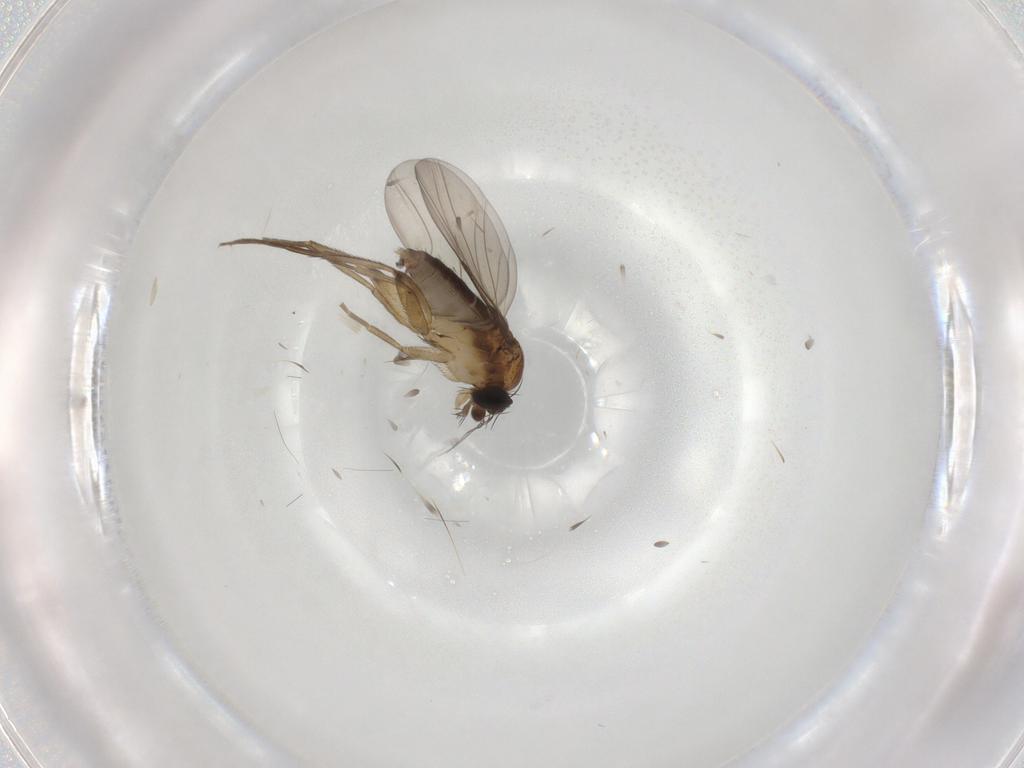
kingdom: Animalia
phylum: Arthropoda
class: Insecta
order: Diptera
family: Phoridae
